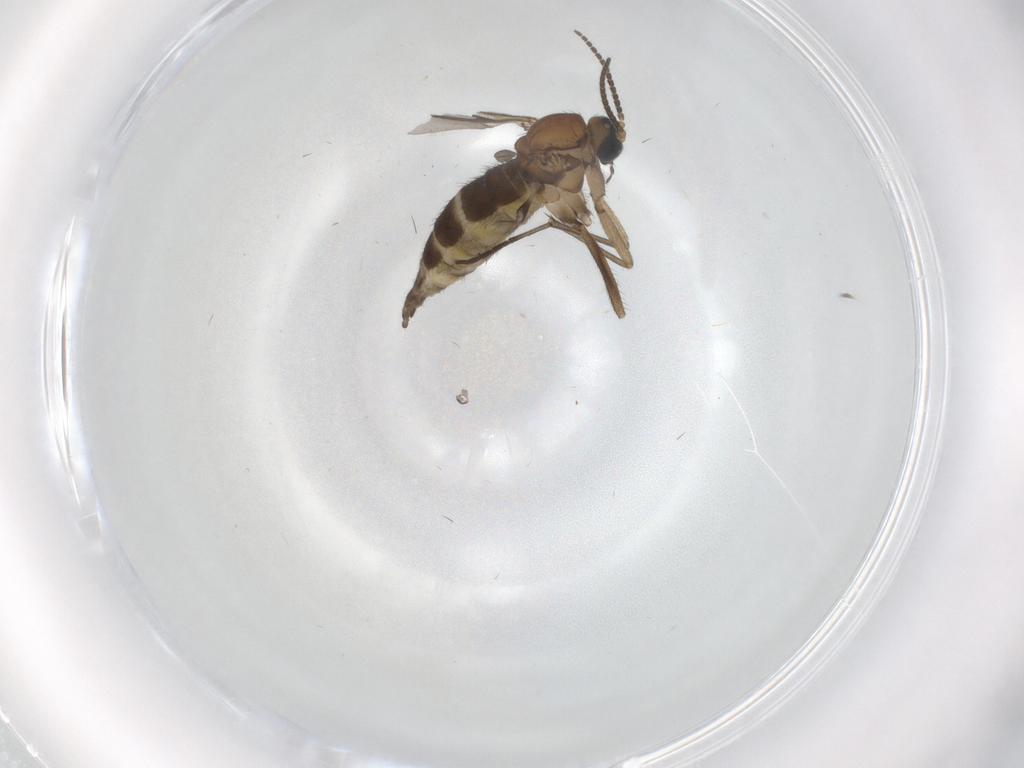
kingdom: Animalia
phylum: Arthropoda
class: Insecta
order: Diptera
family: Sciaridae
